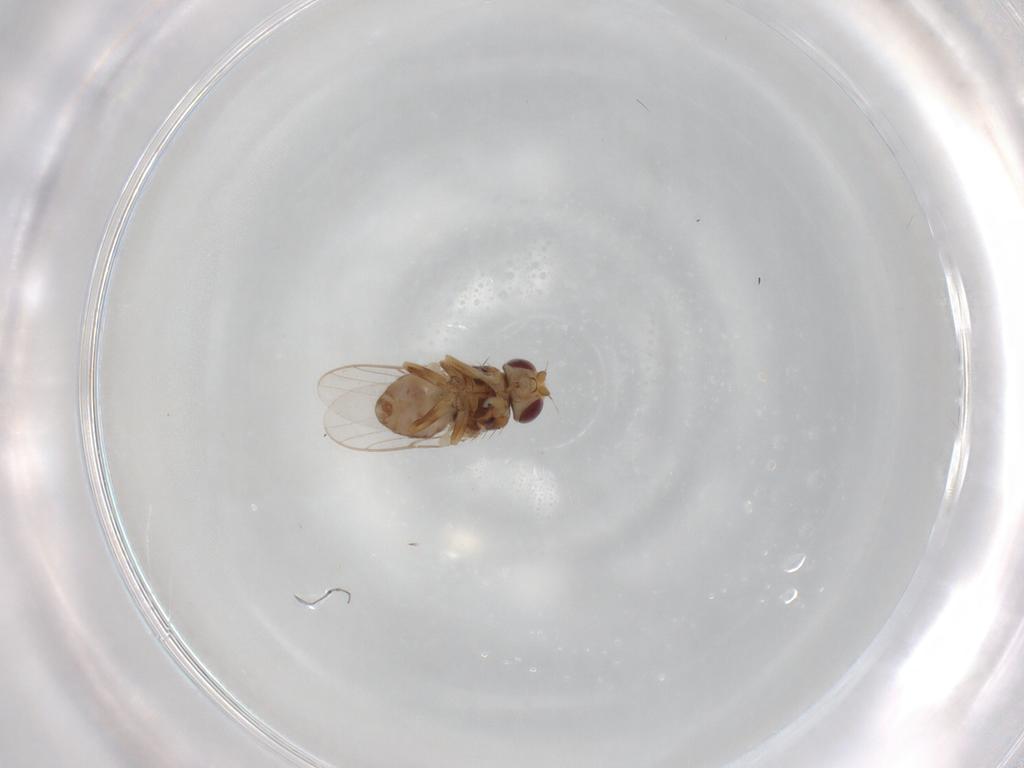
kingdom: Animalia
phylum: Arthropoda
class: Insecta
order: Diptera
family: Chloropidae
